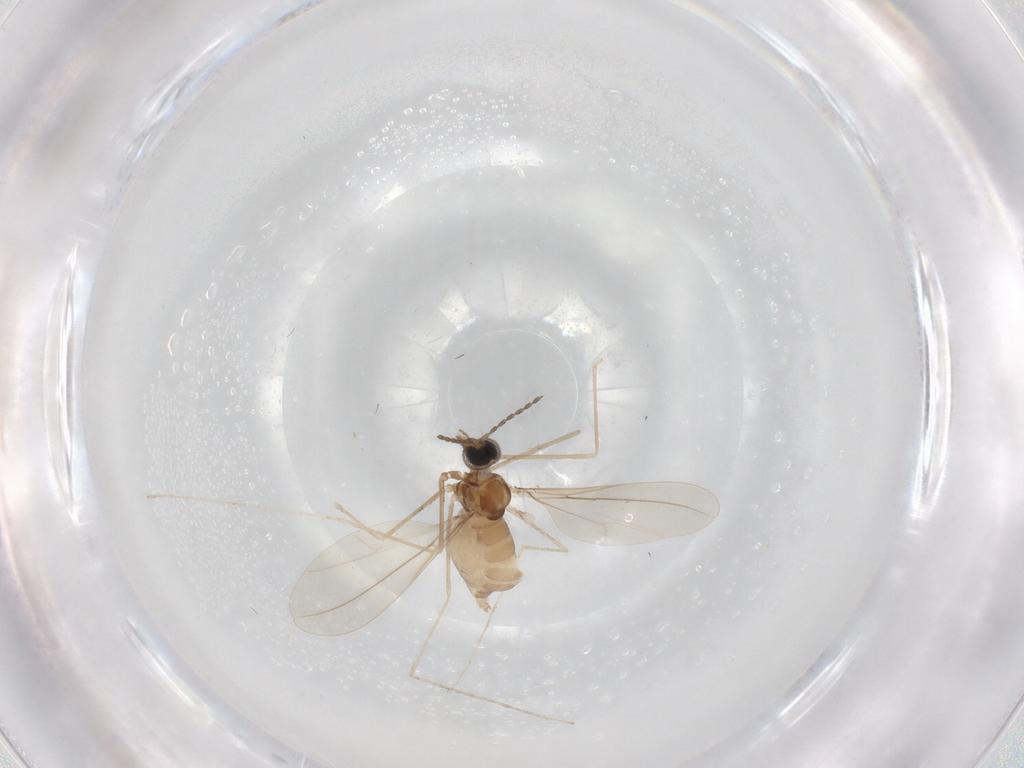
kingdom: Animalia
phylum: Arthropoda
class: Insecta
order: Diptera
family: Cecidomyiidae
